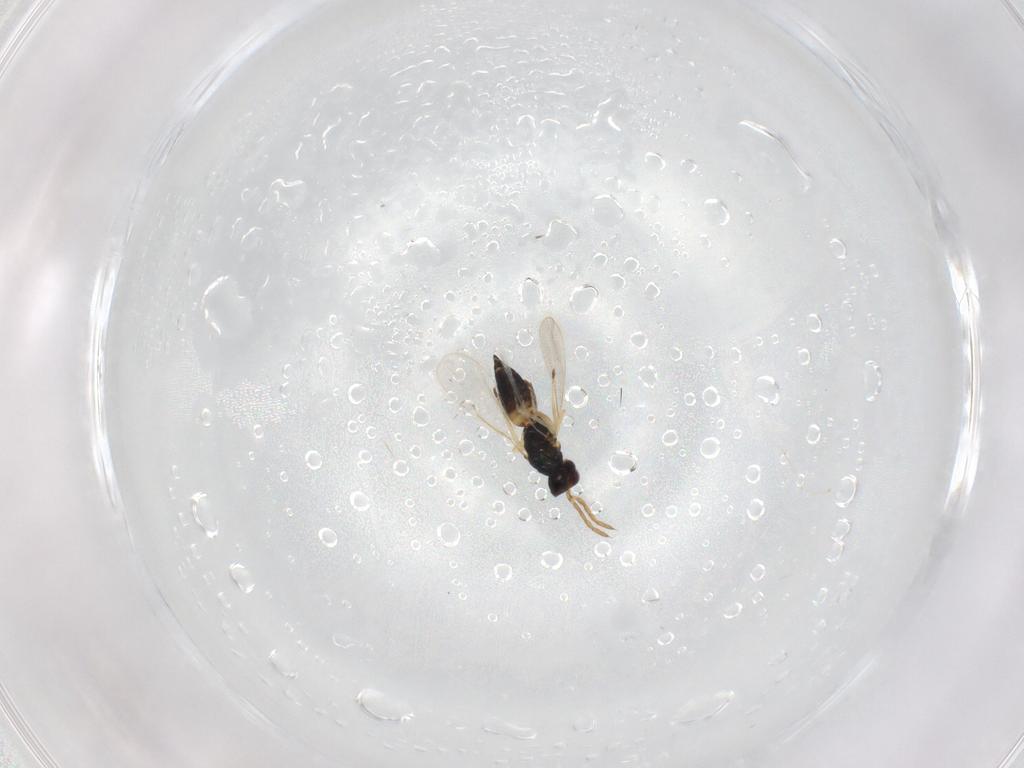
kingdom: Animalia
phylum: Arthropoda
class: Insecta
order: Hymenoptera
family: Eulophidae
